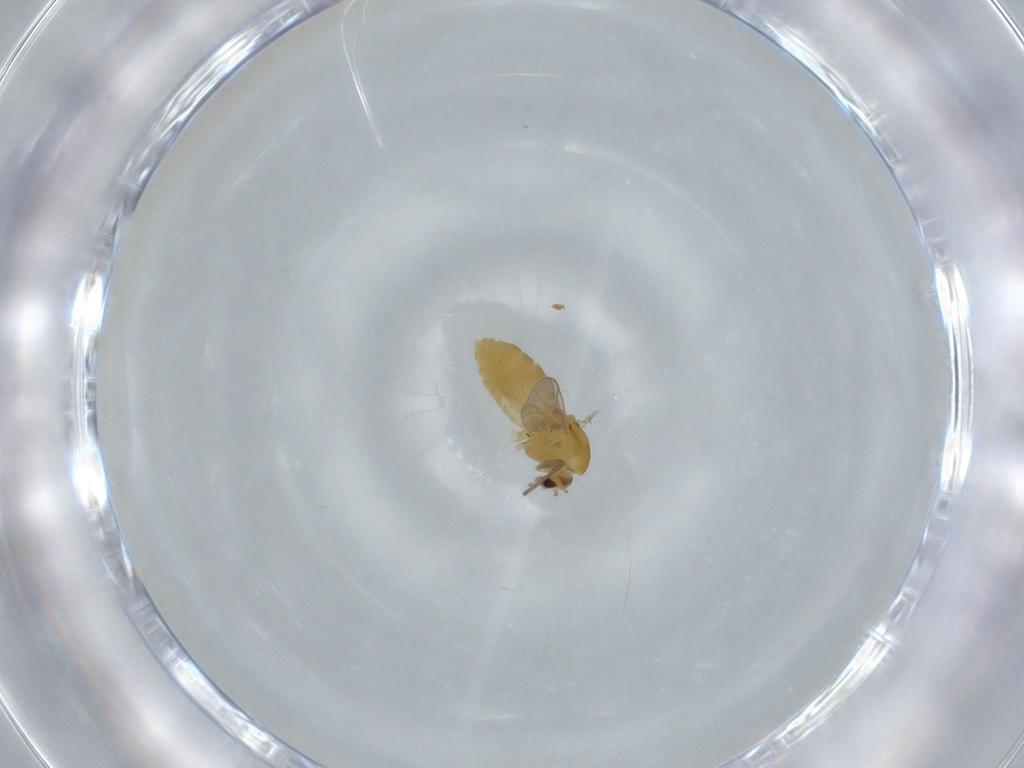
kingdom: Animalia
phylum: Arthropoda
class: Insecta
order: Diptera
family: Chironomidae
